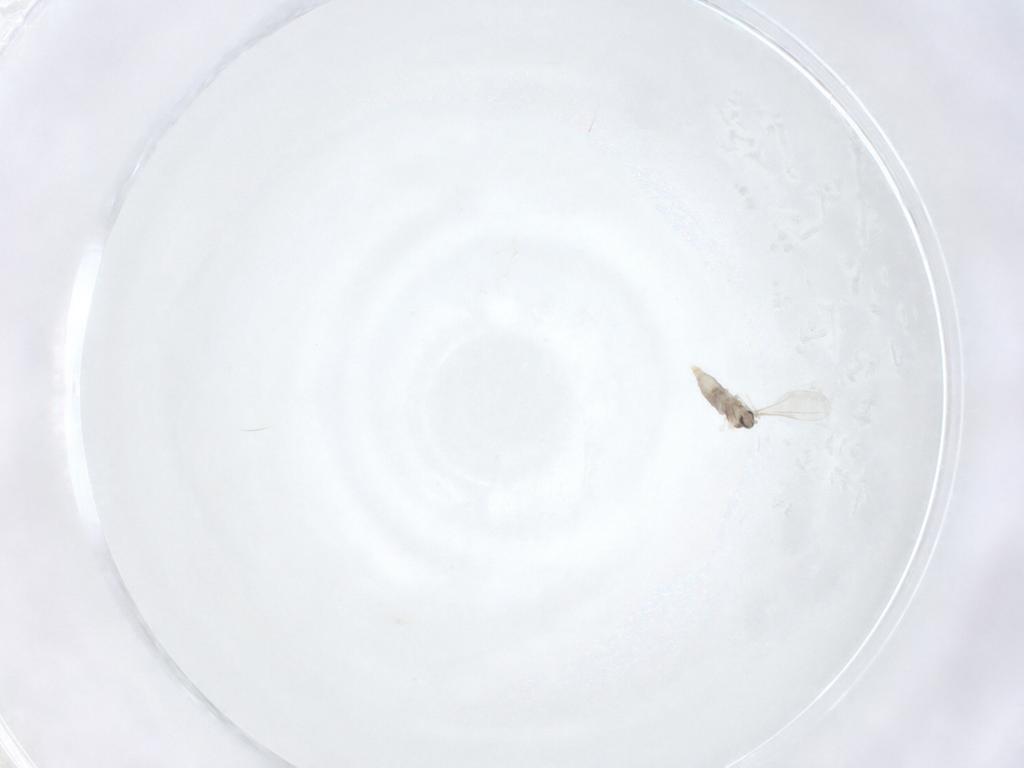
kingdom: Animalia
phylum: Arthropoda
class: Insecta
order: Diptera
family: Cecidomyiidae
